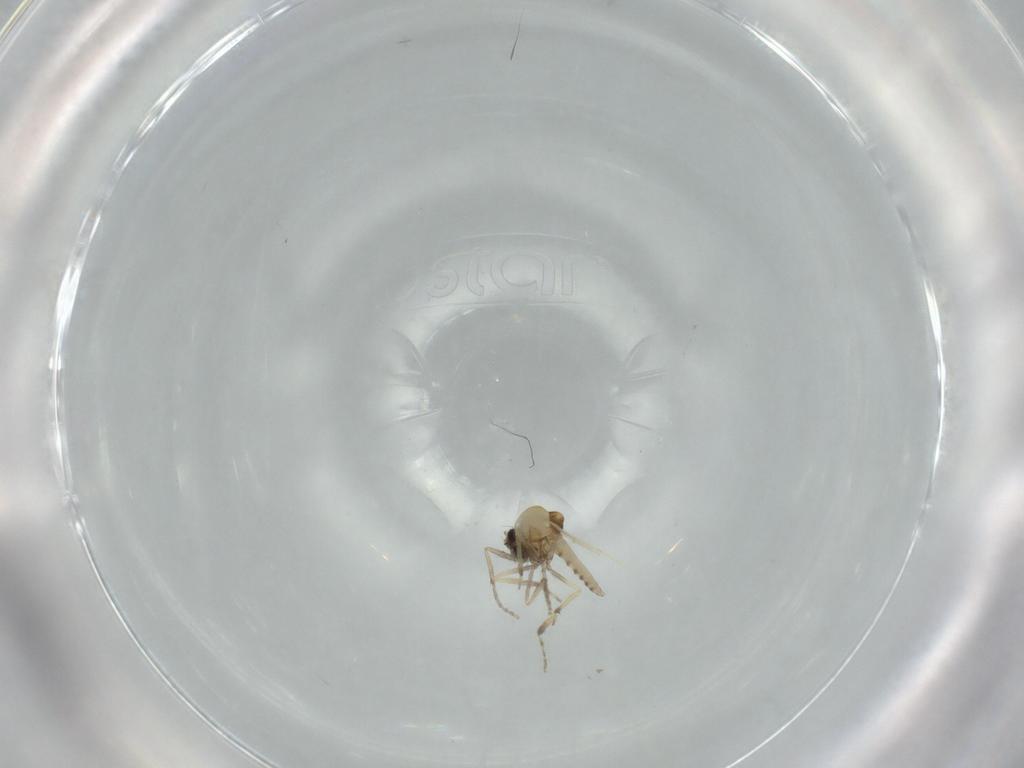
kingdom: Animalia
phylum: Arthropoda
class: Insecta
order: Diptera
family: Ceratopogonidae
